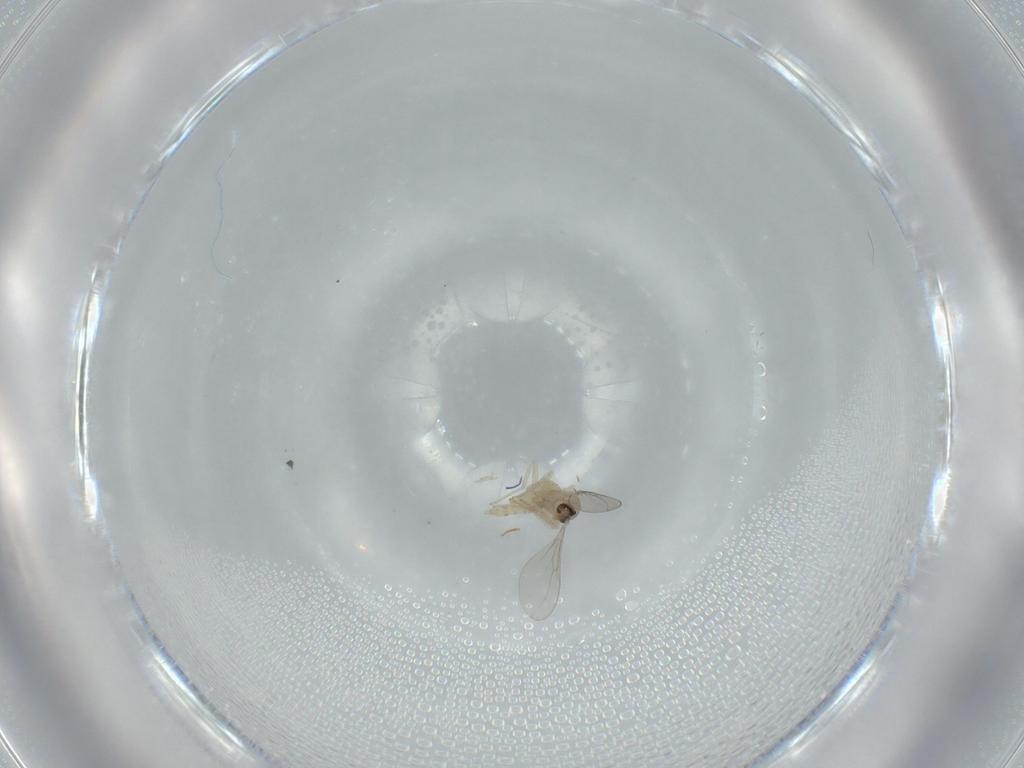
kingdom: Animalia
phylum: Arthropoda
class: Insecta
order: Diptera
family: Cecidomyiidae
